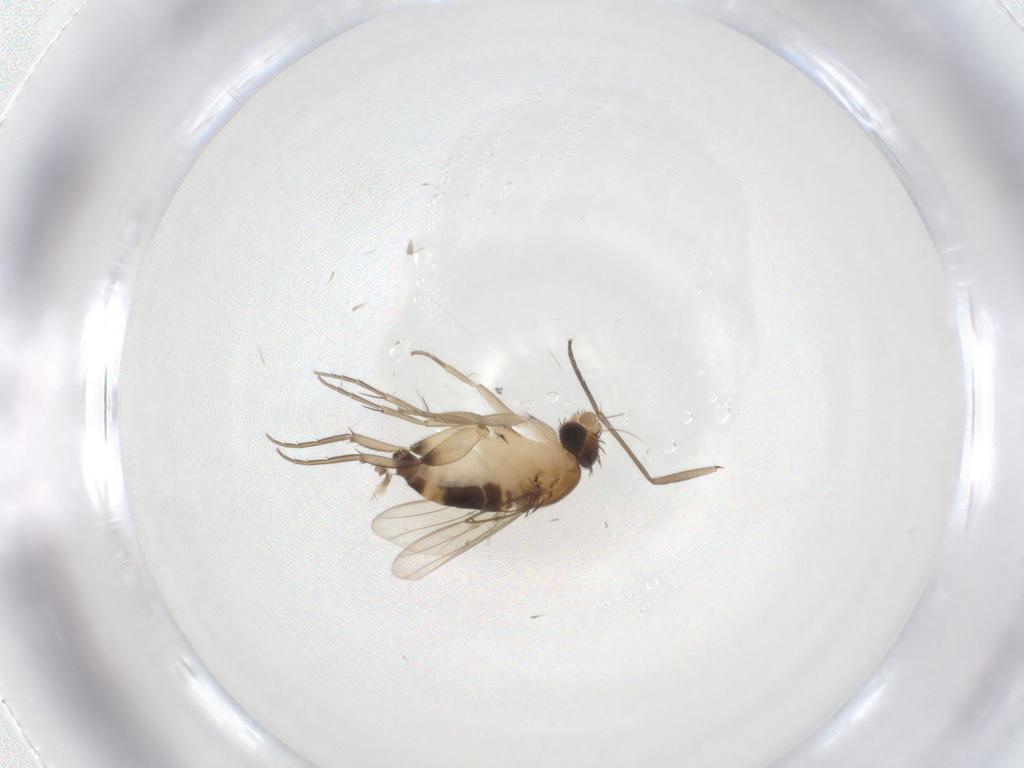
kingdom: Animalia
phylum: Arthropoda
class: Insecta
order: Diptera
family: Phoridae
